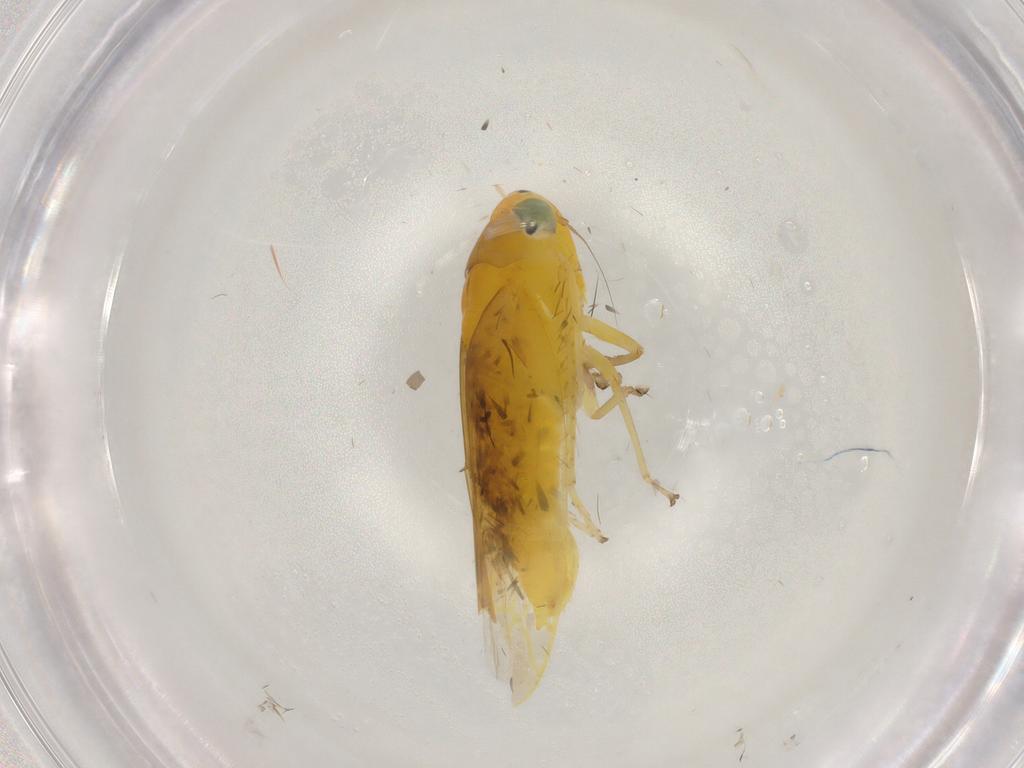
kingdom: Animalia
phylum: Arthropoda
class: Insecta
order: Hemiptera
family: Cicadellidae
